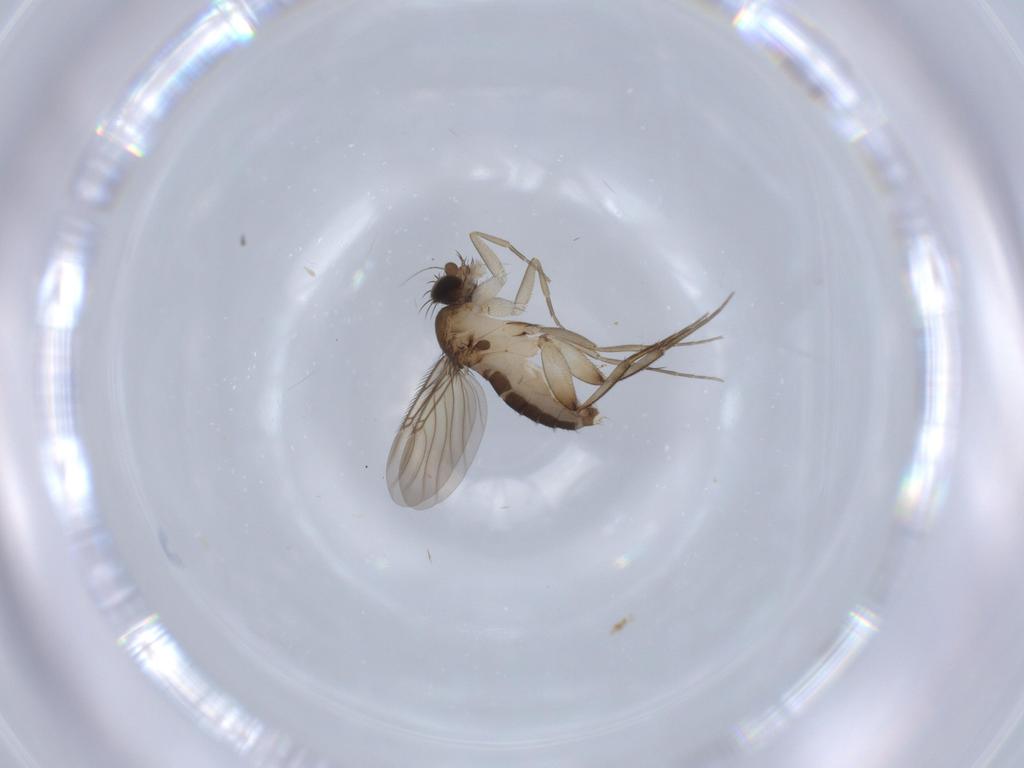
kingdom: Animalia
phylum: Arthropoda
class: Insecta
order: Diptera
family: Phoridae
